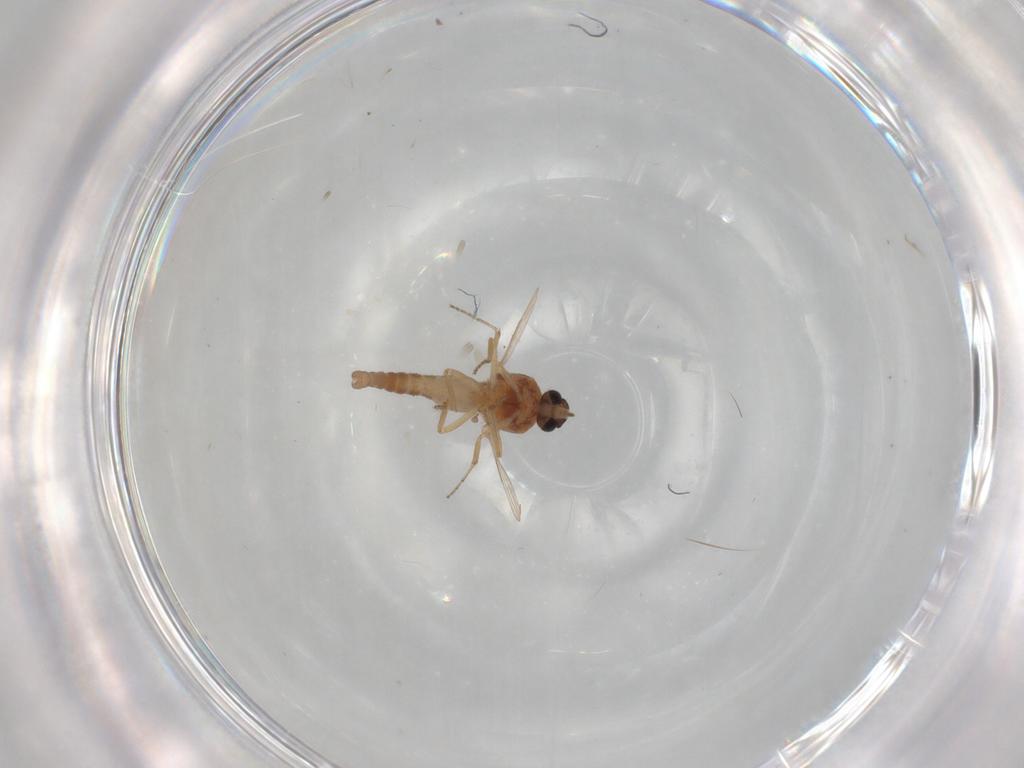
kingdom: Animalia
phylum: Arthropoda
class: Insecta
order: Diptera
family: Ceratopogonidae
